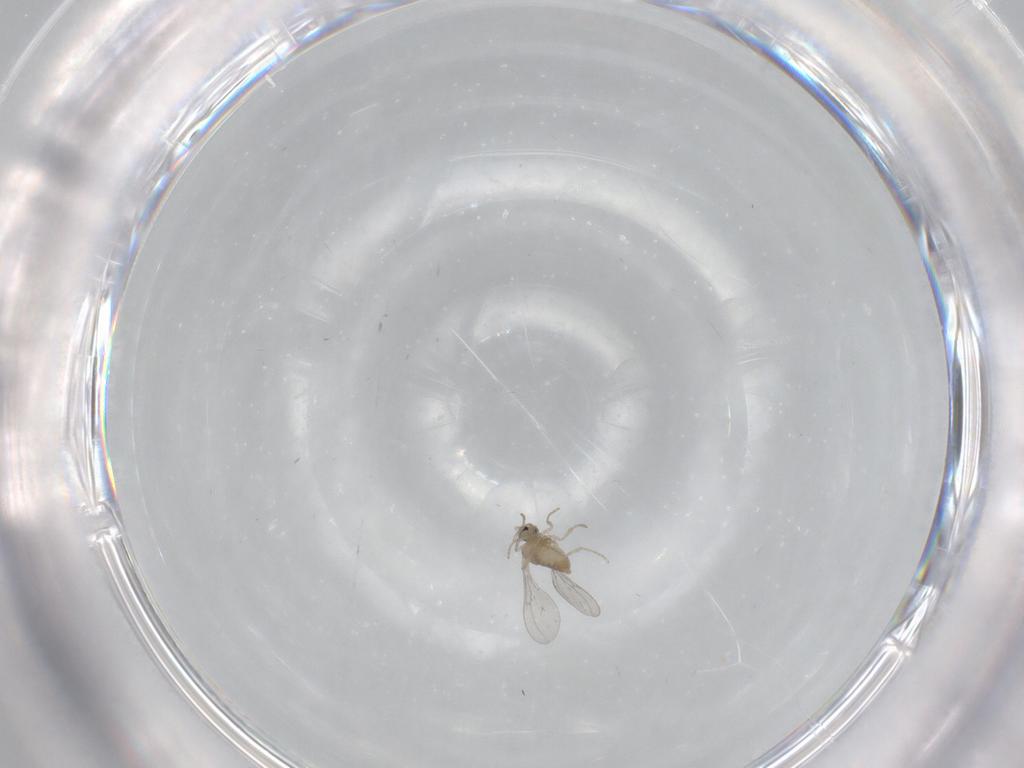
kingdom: Animalia
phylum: Arthropoda
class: Insecta
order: Diptera
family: Cecidomyiidae
